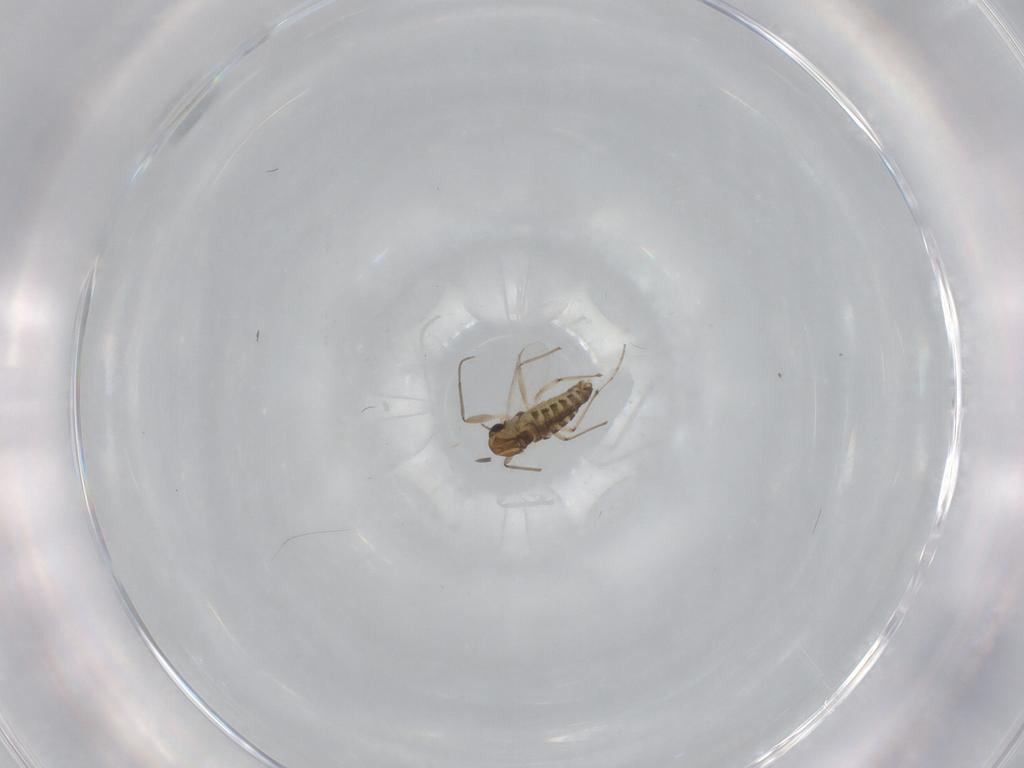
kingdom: Animalia
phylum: Arthropoda
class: Insecta
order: Diptera
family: Chironomidae
